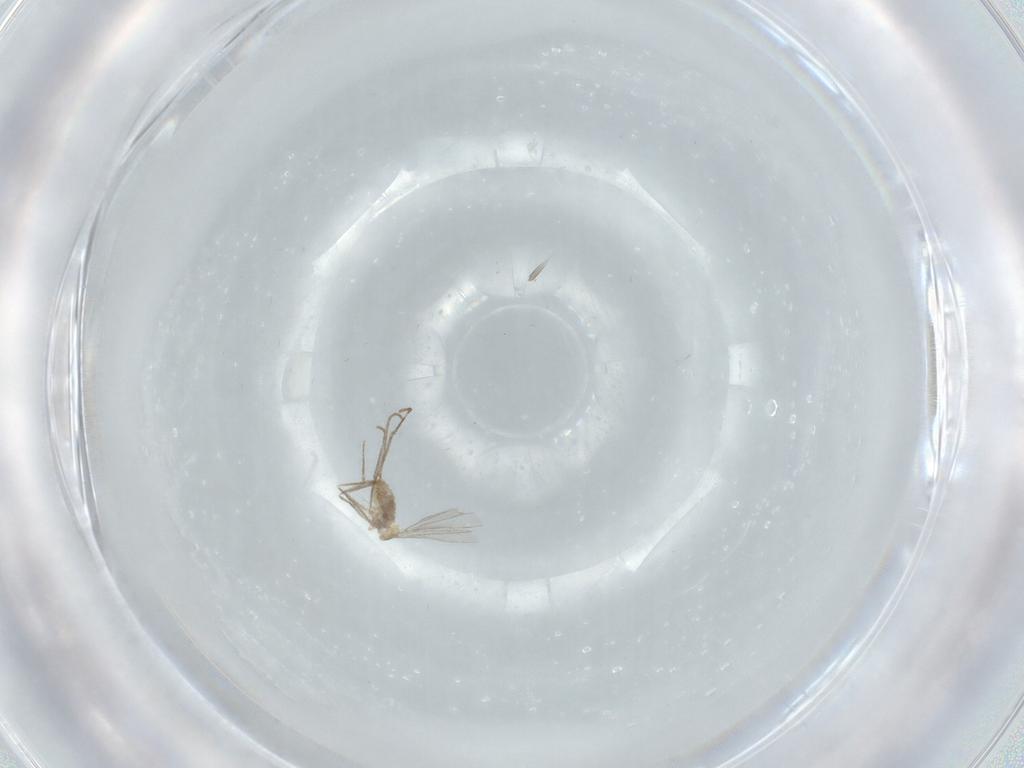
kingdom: Animalia
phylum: Arthropoda
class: Insecta
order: Diptera
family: Cecidomyiidae
